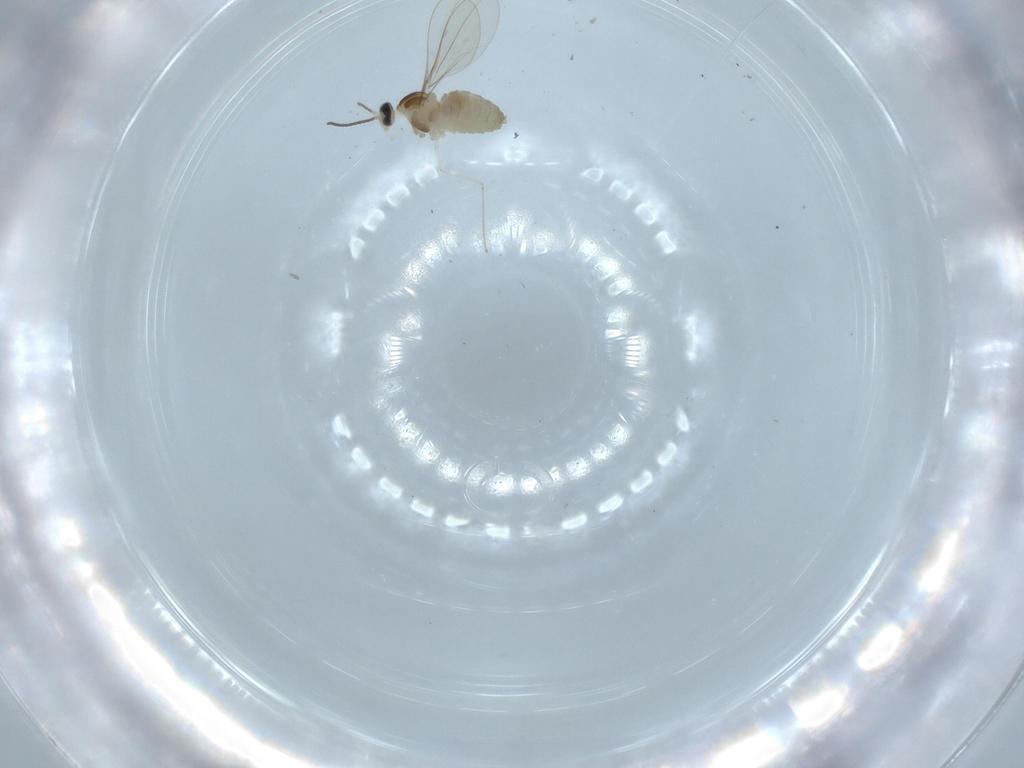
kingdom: Animalia
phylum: Arthropoda
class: Insecta
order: Diptera
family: Cecidomyiidae
